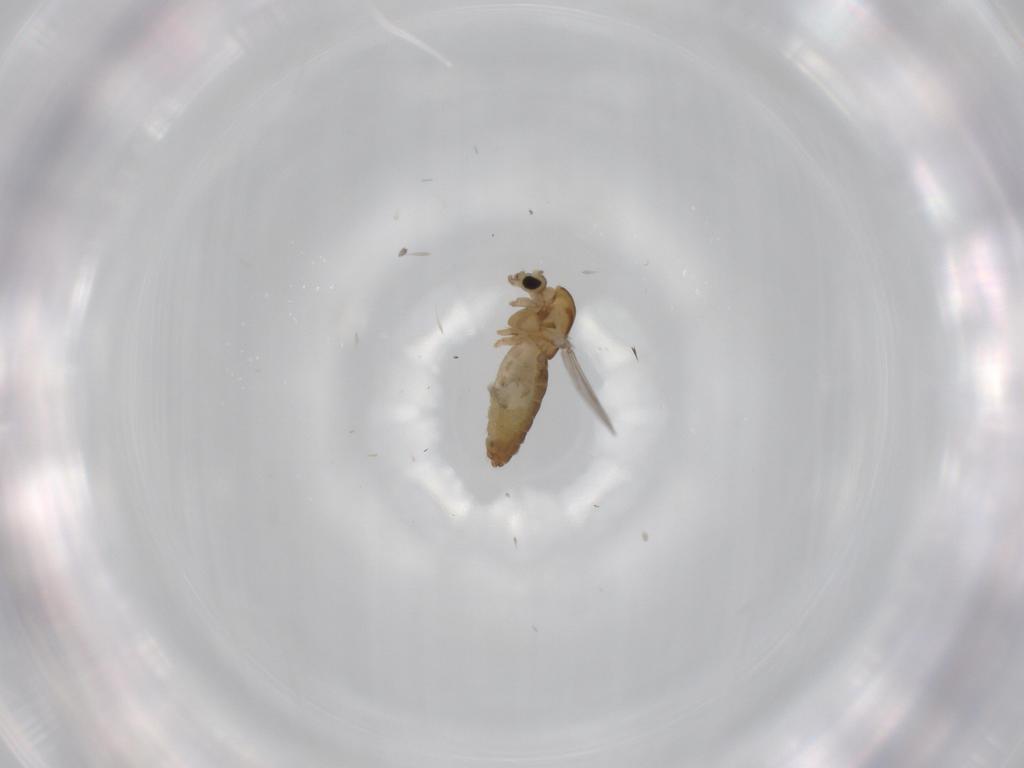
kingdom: Animalia
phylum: Arthropoda
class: Insecta
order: Diptera
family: Chironomidae
